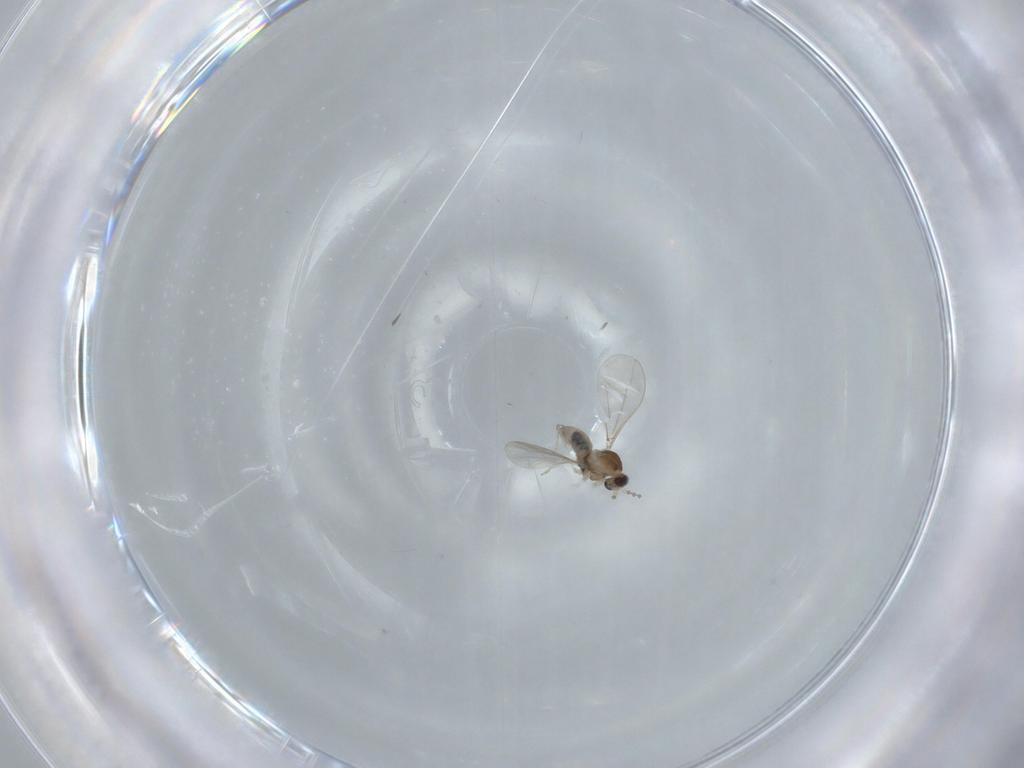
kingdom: Animalia
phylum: Arthropoda
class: Insecta
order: Diptera
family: Cecidomyiidae
